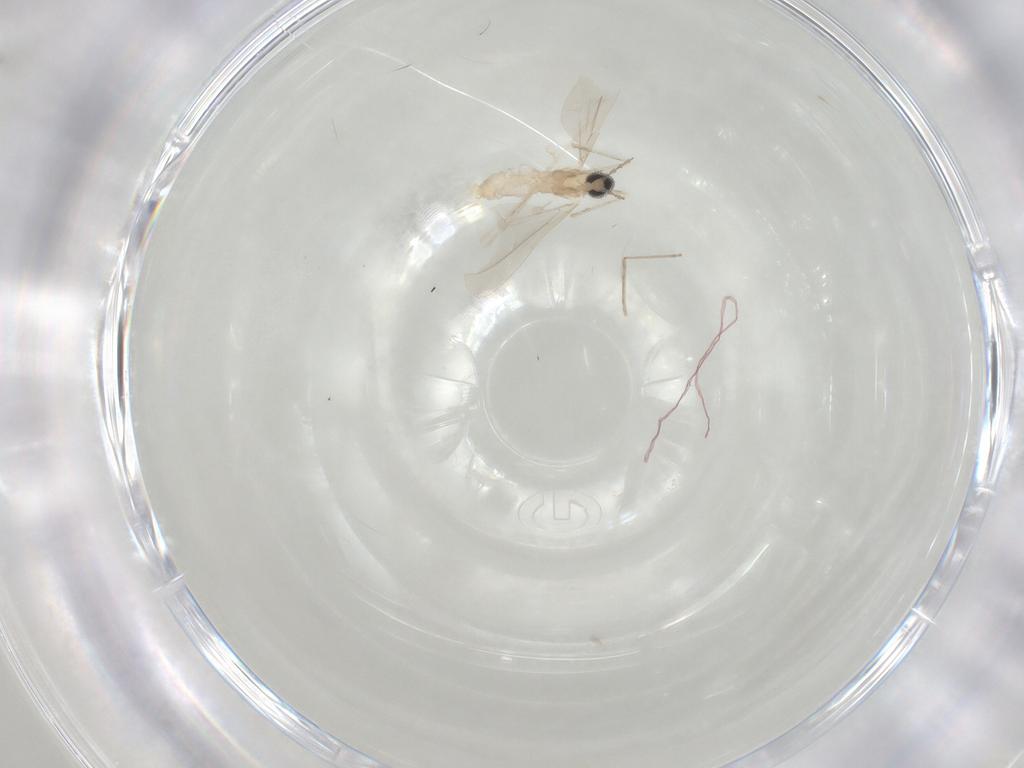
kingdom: Animalia
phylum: Arthropoda
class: Insecta
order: Diptera
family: Cecidomyiidae
